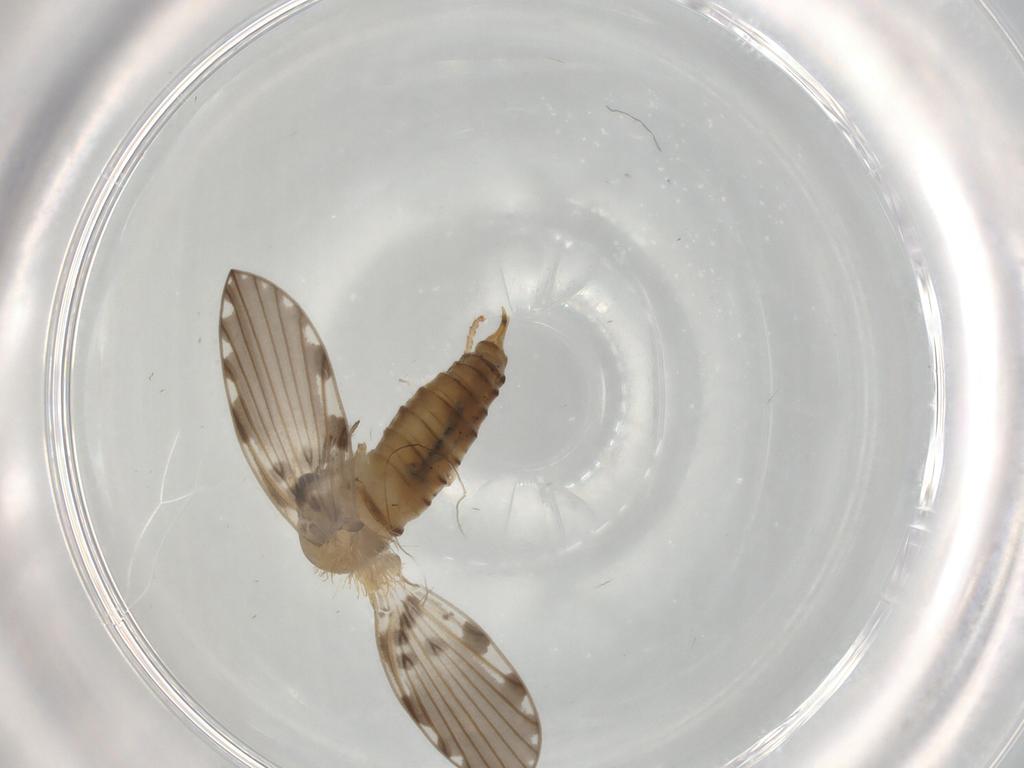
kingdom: Animalia
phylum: Arthropoda
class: Insecta
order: Diptera
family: Psychodidae
